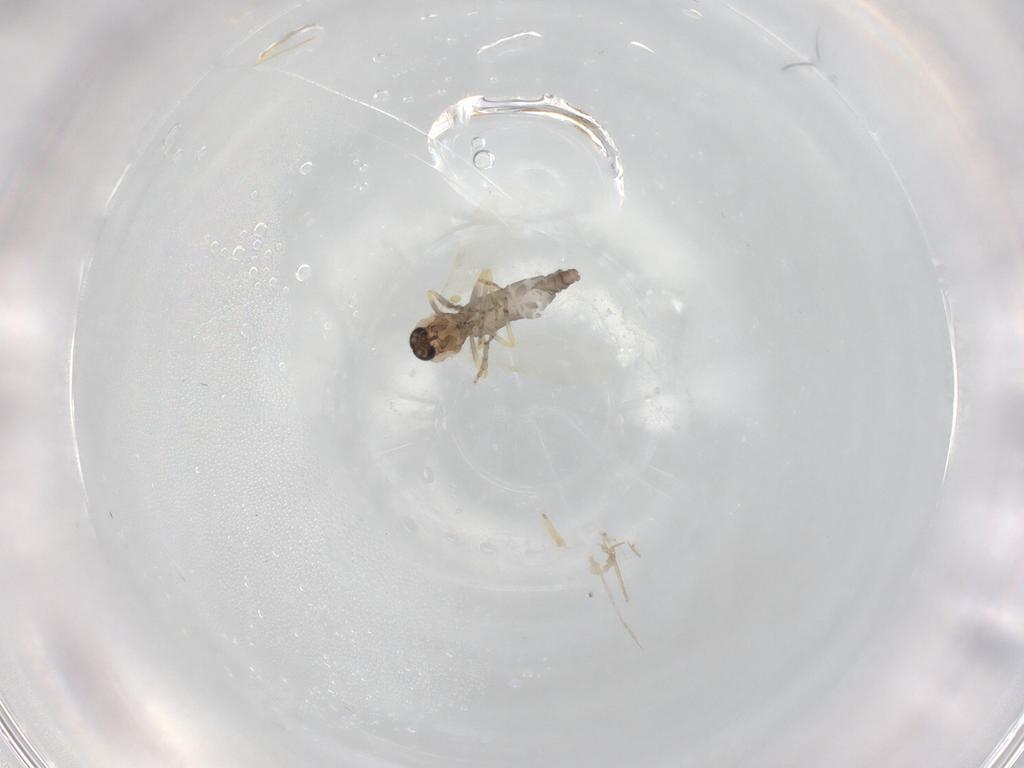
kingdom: Animalia
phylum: Arthropoda
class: Insecta
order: Diptera
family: Ceratopogonidae
